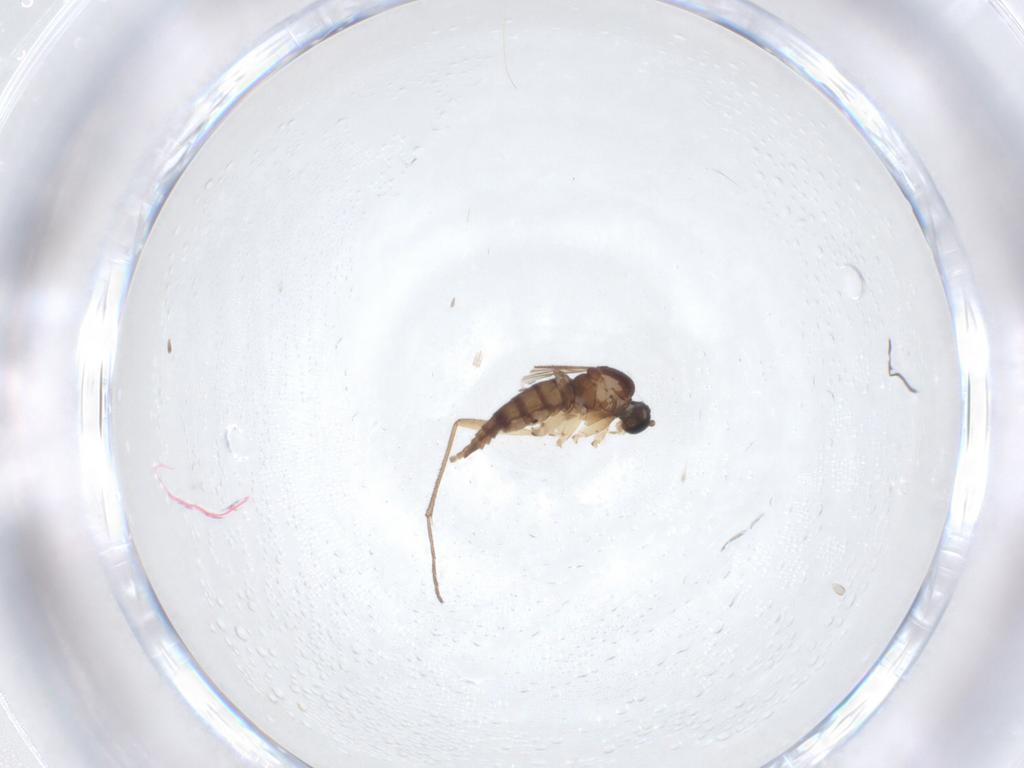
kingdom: Animalia
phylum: Arthropoda
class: Insecta
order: Diptera
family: Sciaridae
